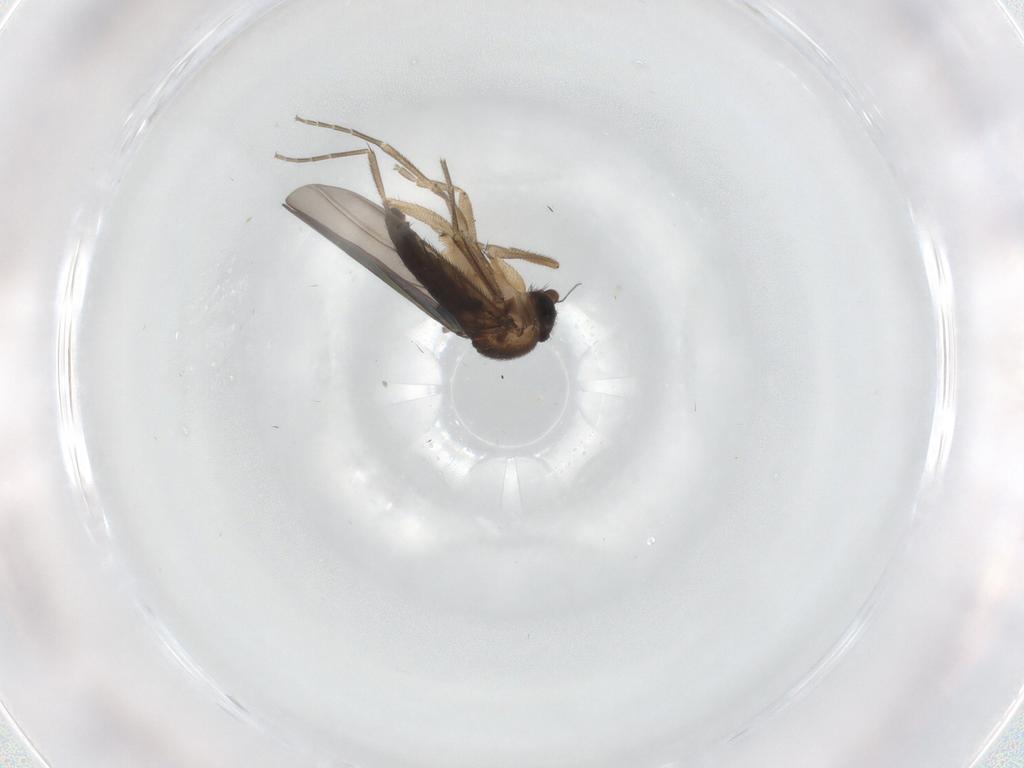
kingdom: Animalia
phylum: Arthropoda
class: Insecta
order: Diptera
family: Phoridae
